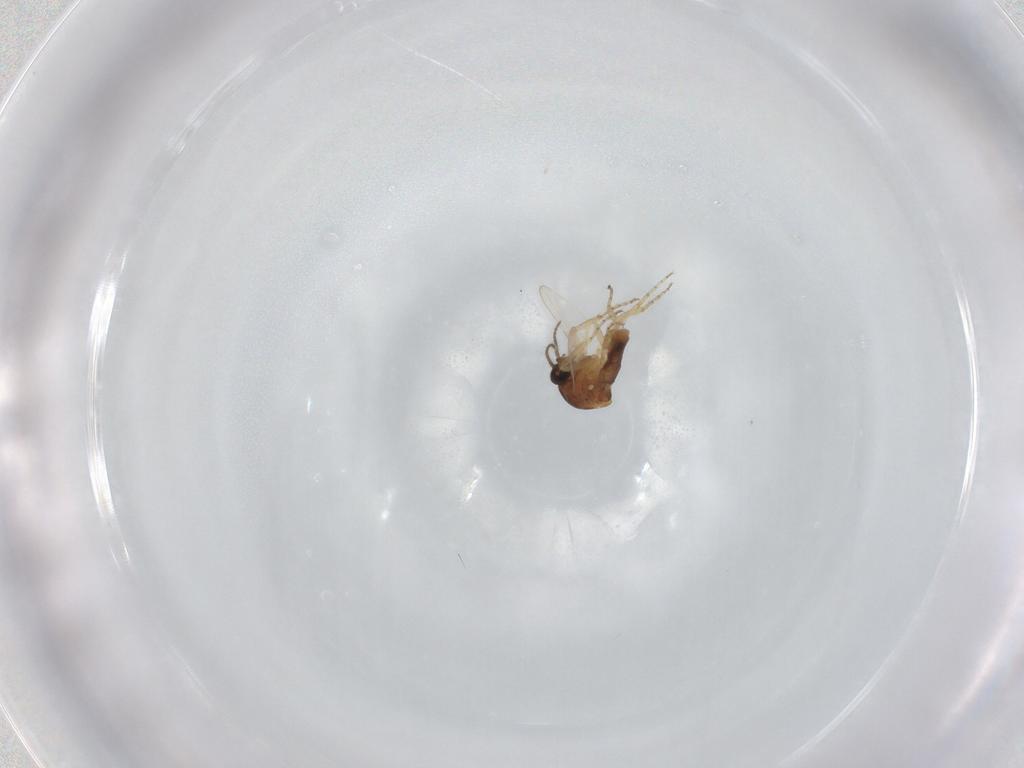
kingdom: Animalia
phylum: Arthropoda
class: Insecta
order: Diptera
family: Ceratopogonidae
